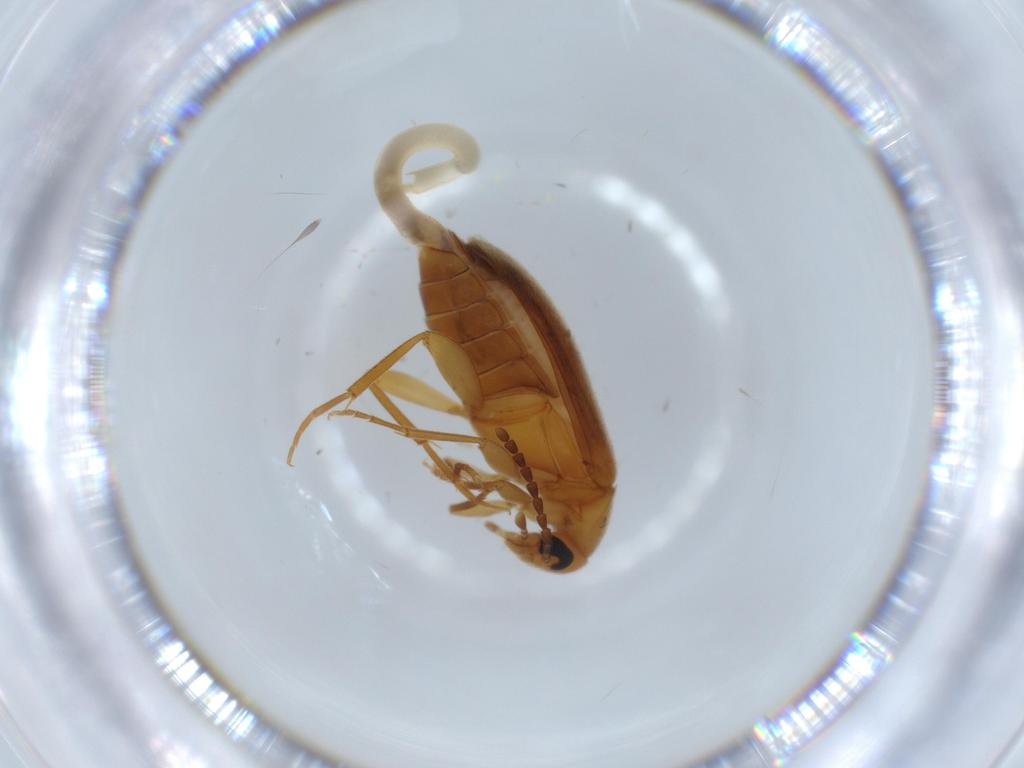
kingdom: Animalia
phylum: Arthropoda
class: Insecta
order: Coleoptera
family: Scraptiidae
